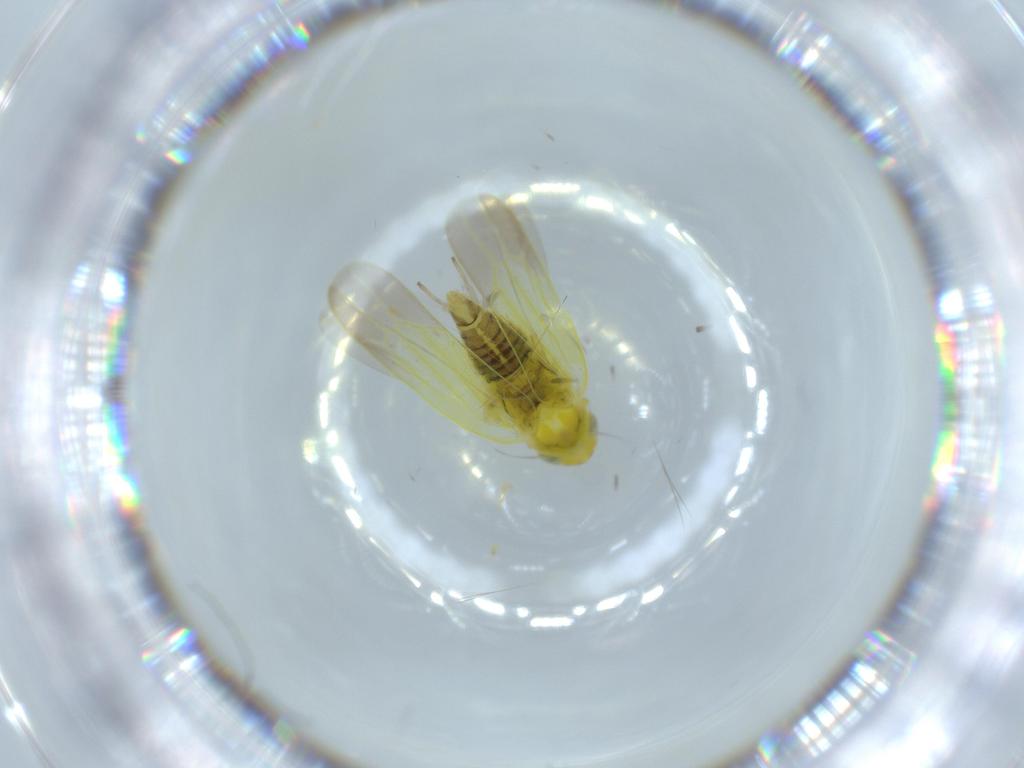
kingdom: Animalia
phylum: Arthropoda
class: Insecta
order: Hemiptera
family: Cicadellidae
